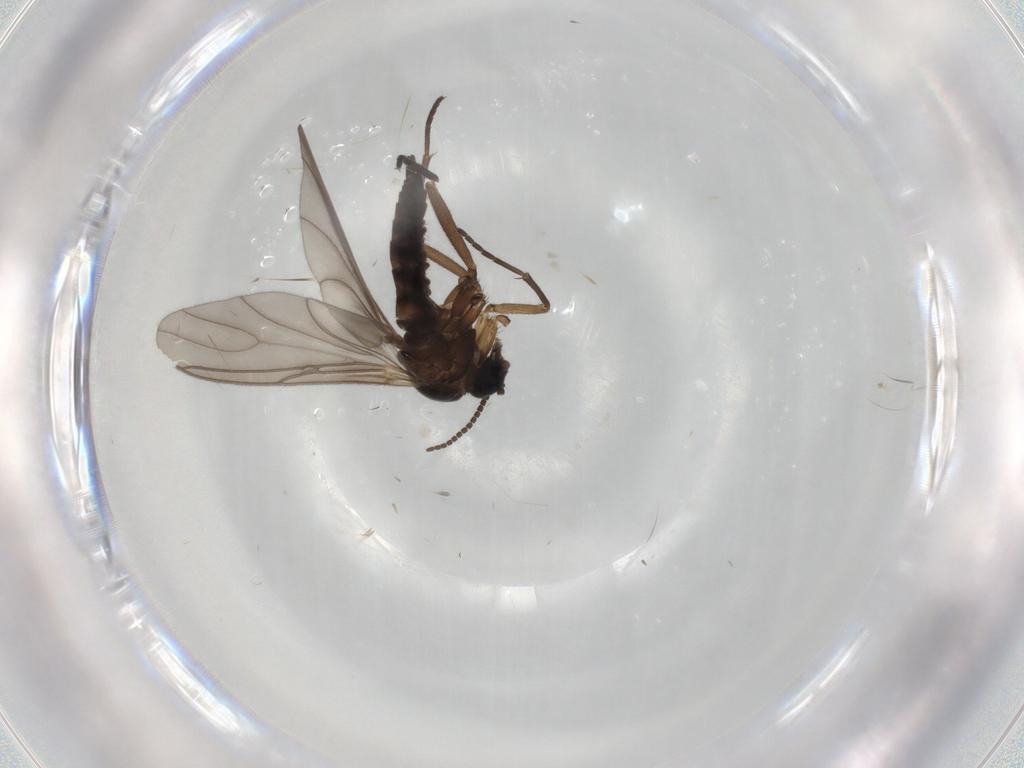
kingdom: Animalia
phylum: Arthropoda
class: Insecta
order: Diptera
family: Sciaridae
